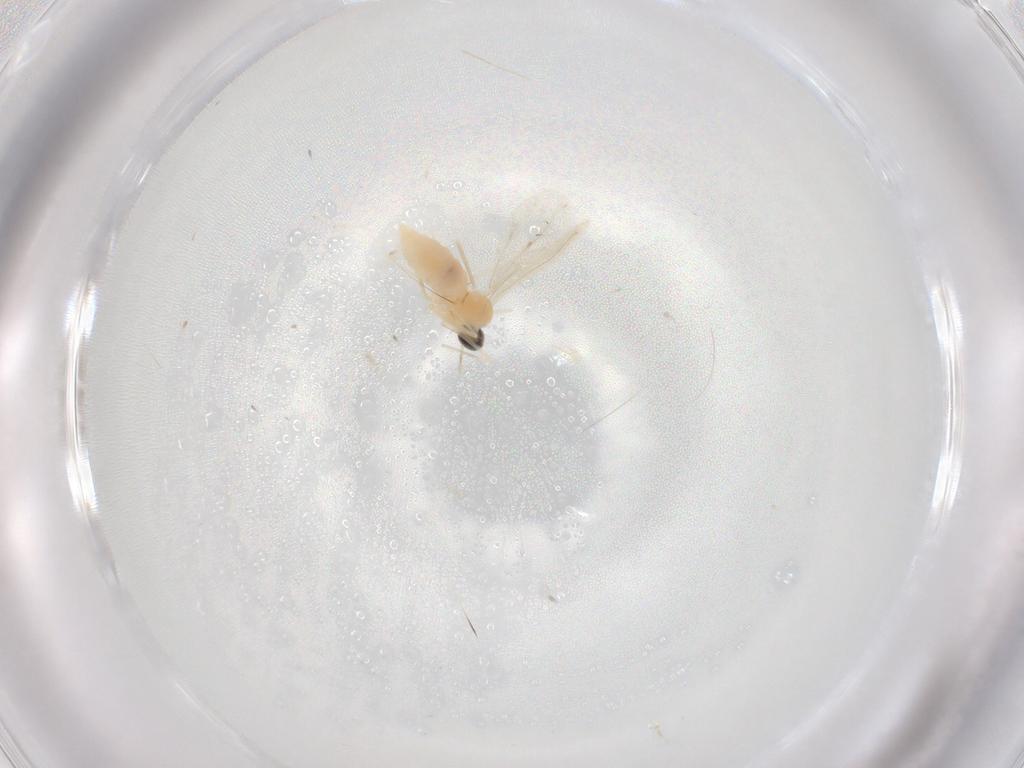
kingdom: Animalia
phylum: Arthropoda
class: Insecta
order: Diptera
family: Cecidomyiidae
